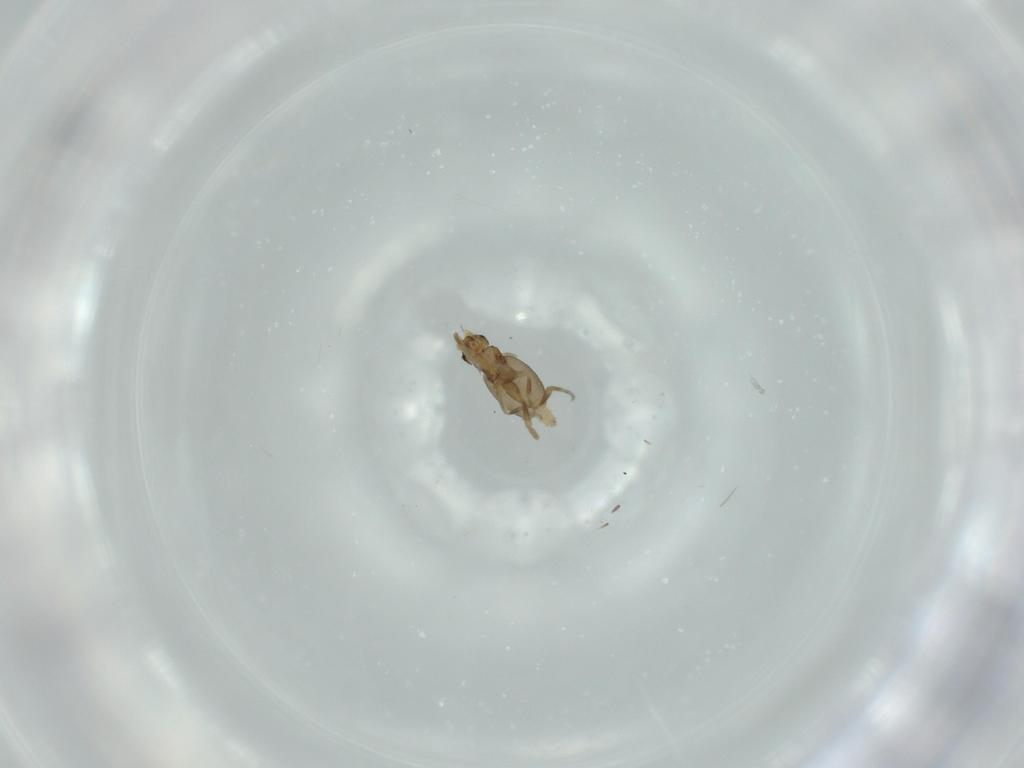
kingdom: Animalia
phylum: Arthropoda
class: Insecta
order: Diptera
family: Phoridae
